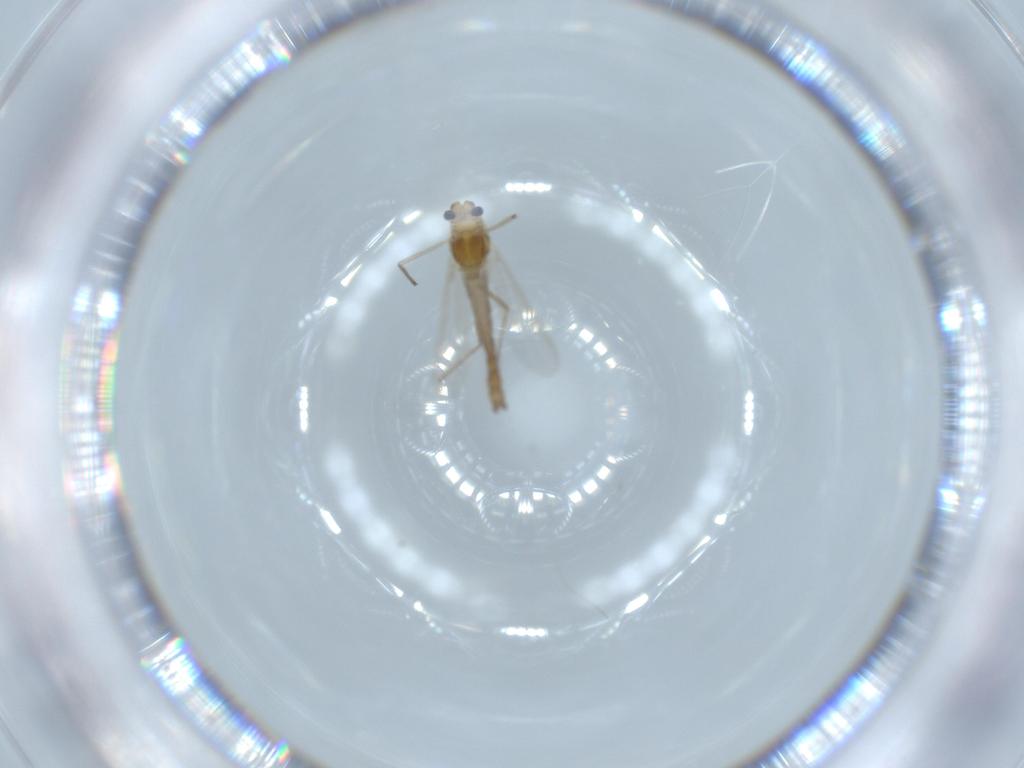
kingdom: Animalia
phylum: Arthropoda
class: Insecta
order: Diptera
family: Chironomidae
